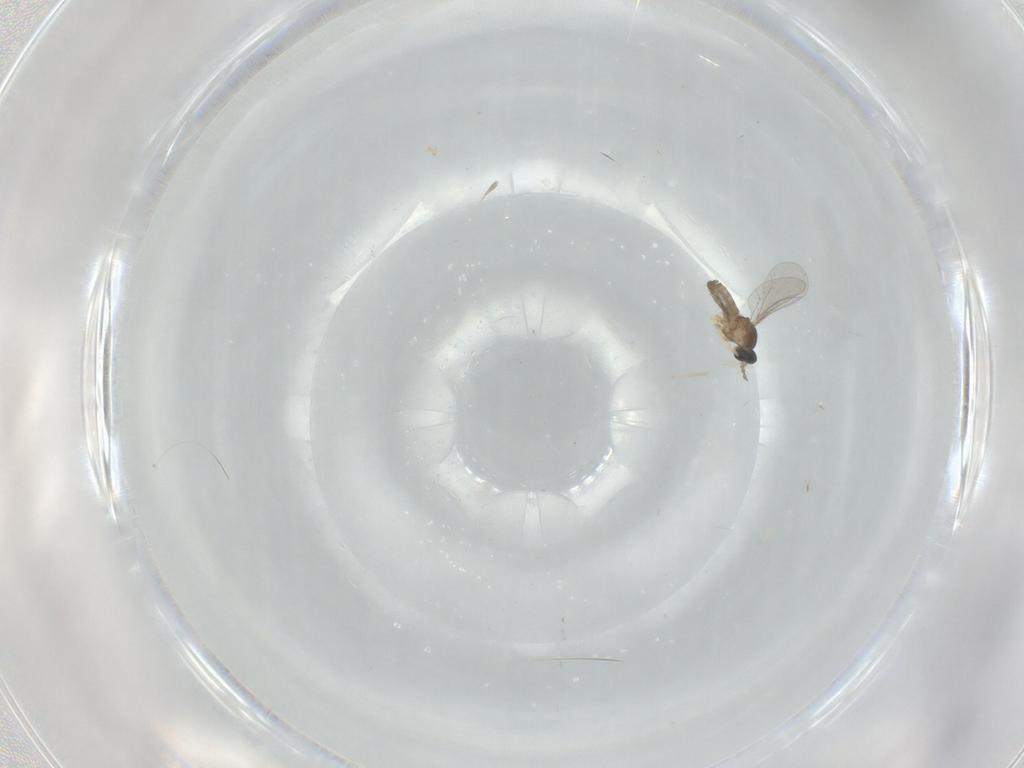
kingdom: Animalia
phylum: Arthropoda
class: Insecta
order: Diptera
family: Cecidomyiidae
